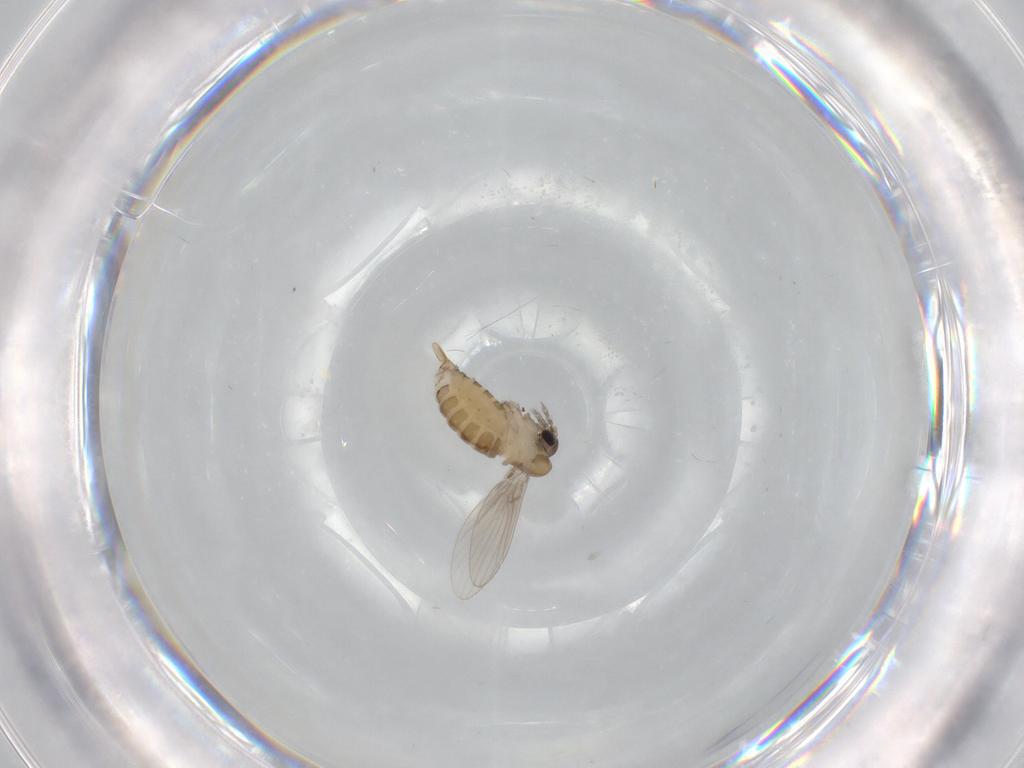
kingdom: Animalia
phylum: Arthropoda
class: Insecta
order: Diptera
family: Psychodidae
